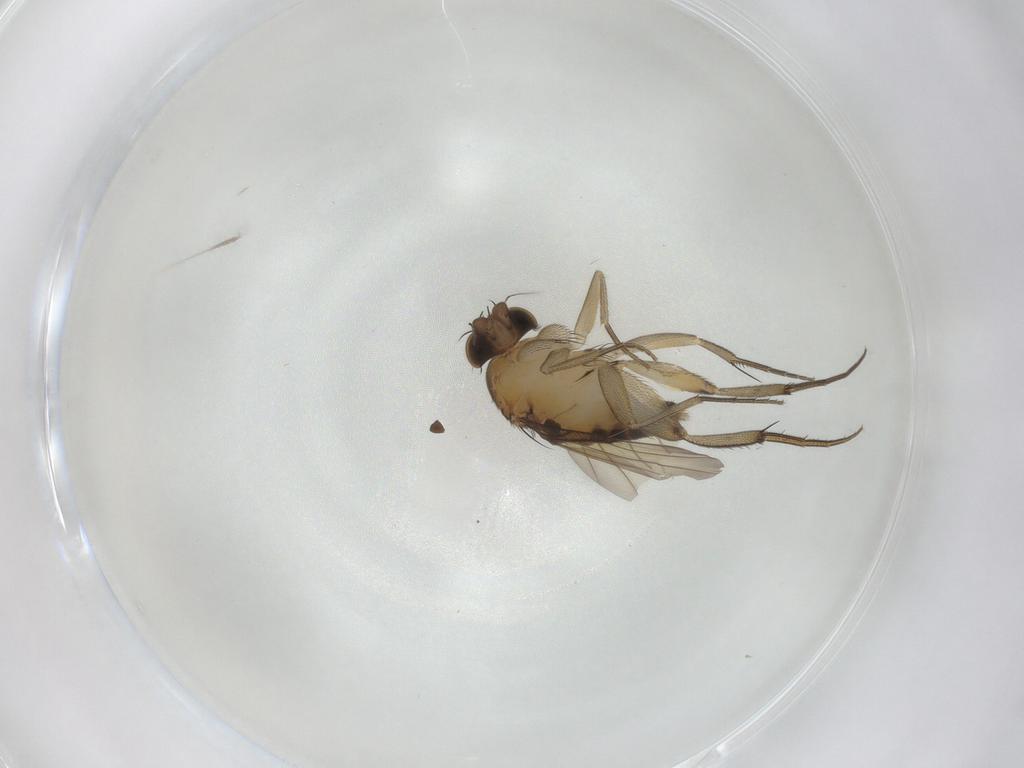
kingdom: Animalia
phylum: Arthropoda
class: Insecta
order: Diptera
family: Phoridae
